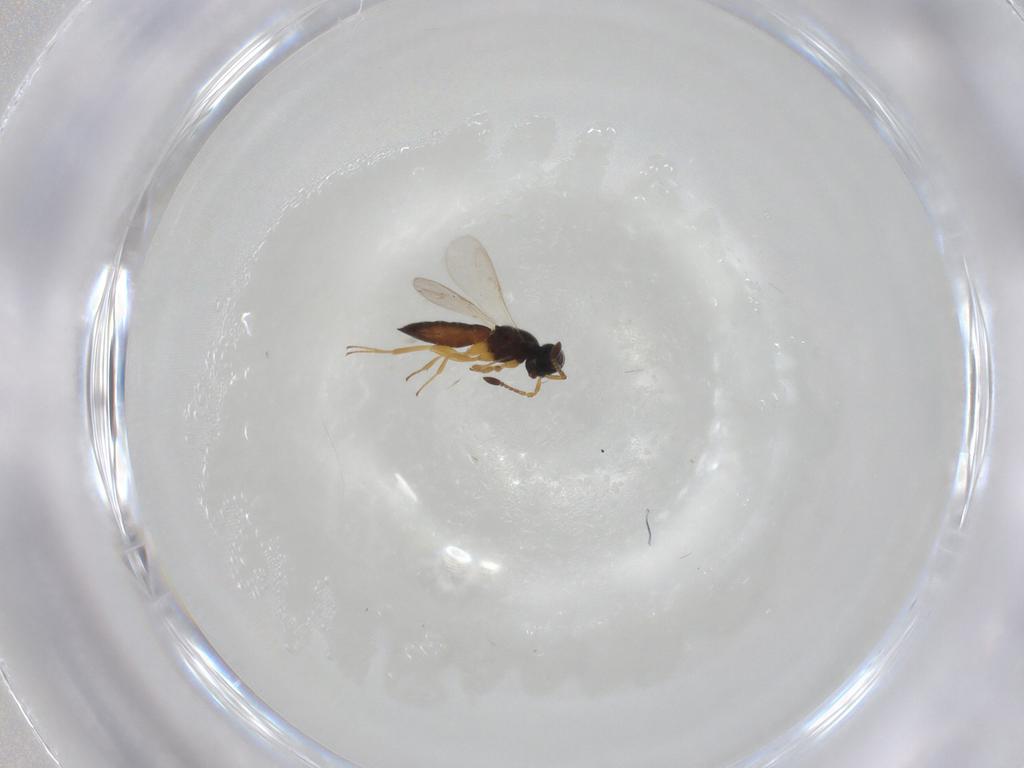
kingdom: Animalia
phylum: Arthropoda
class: Insecta
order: Hymenoptera
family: Scelionidae
